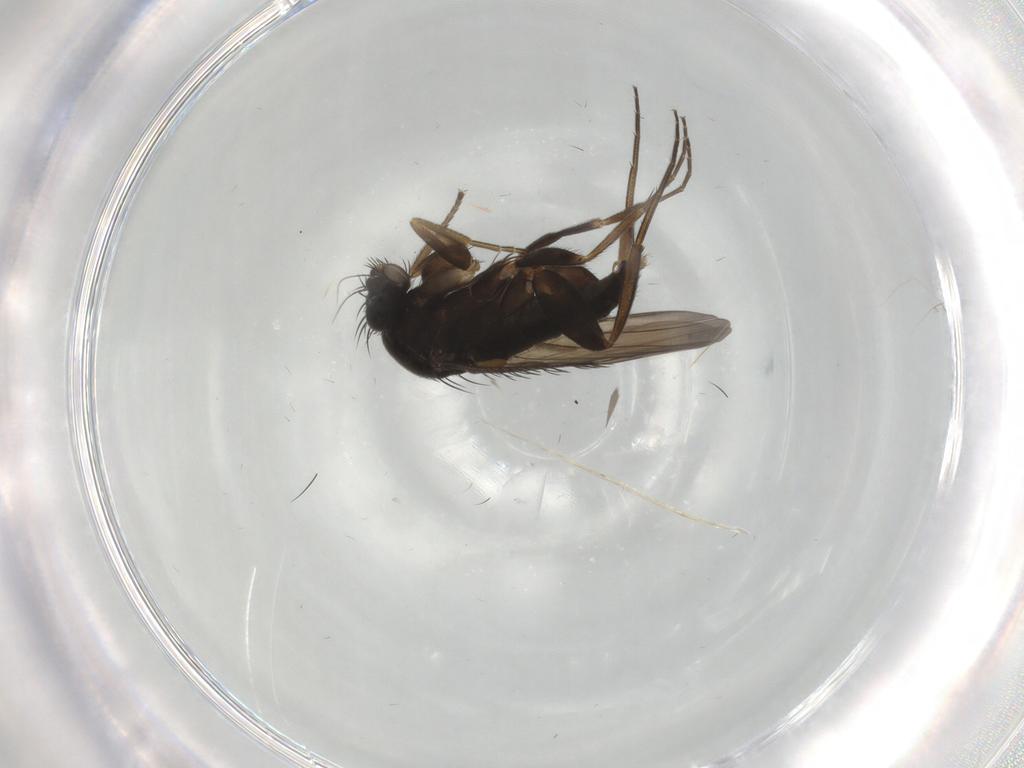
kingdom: Animalia
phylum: Arthropoda
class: Insecta
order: Diptera
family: Phoridae
